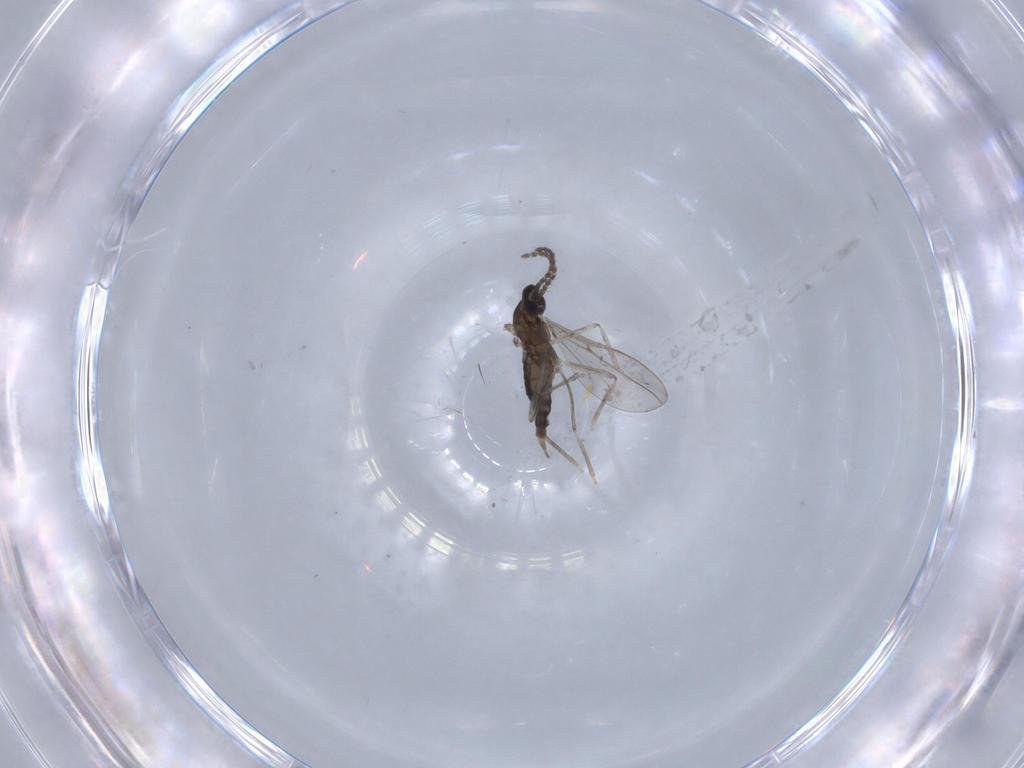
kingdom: Animalia
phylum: Arthropoda
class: Insecta
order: Diptera
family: Cecidomyiidae
